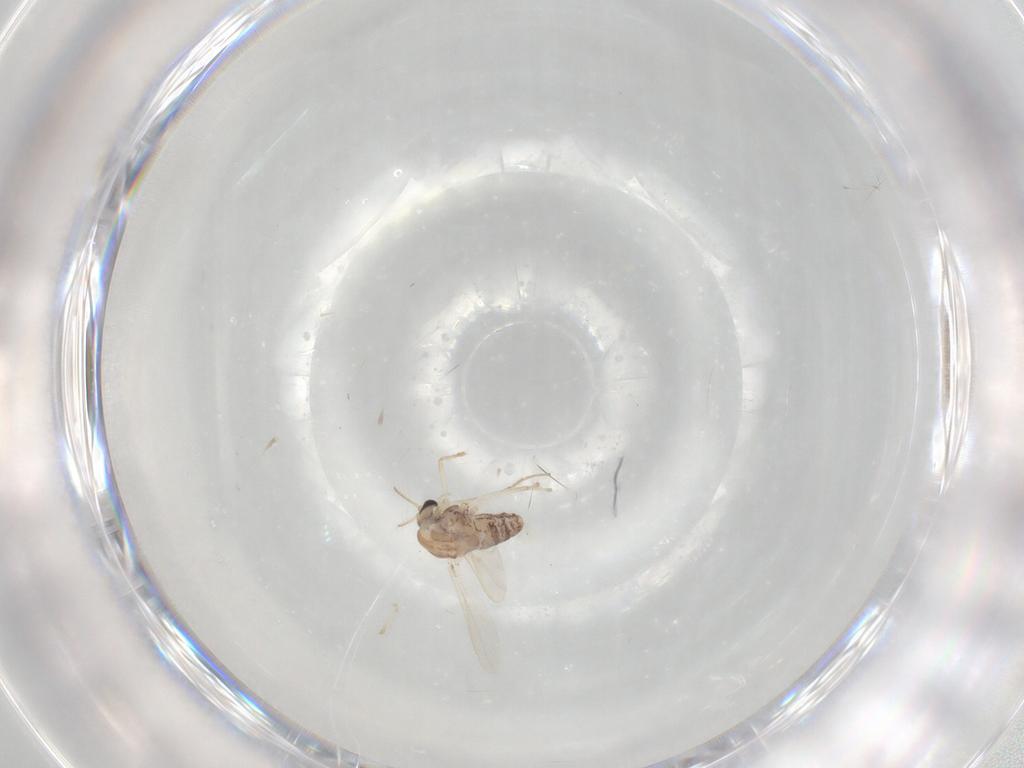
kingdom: Animalia
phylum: Arthropoda
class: Insecta
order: Diptera
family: Chironomidae
